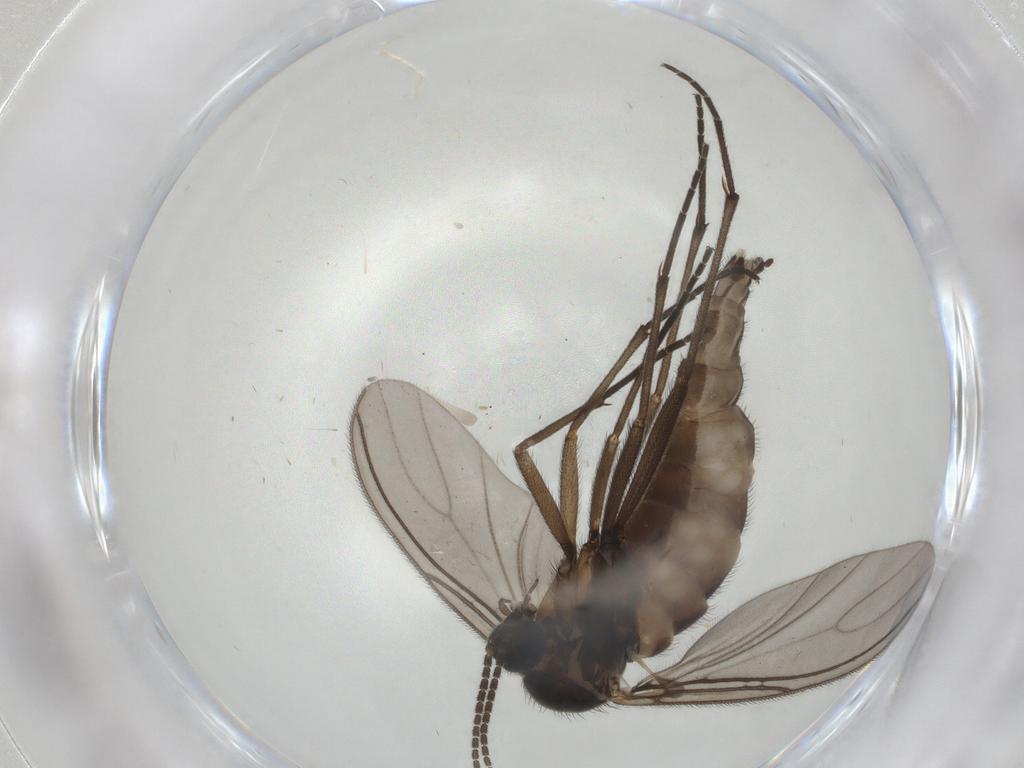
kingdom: Animalia
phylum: Arthropoda
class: Insecta
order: Diptera
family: Sciaridae
